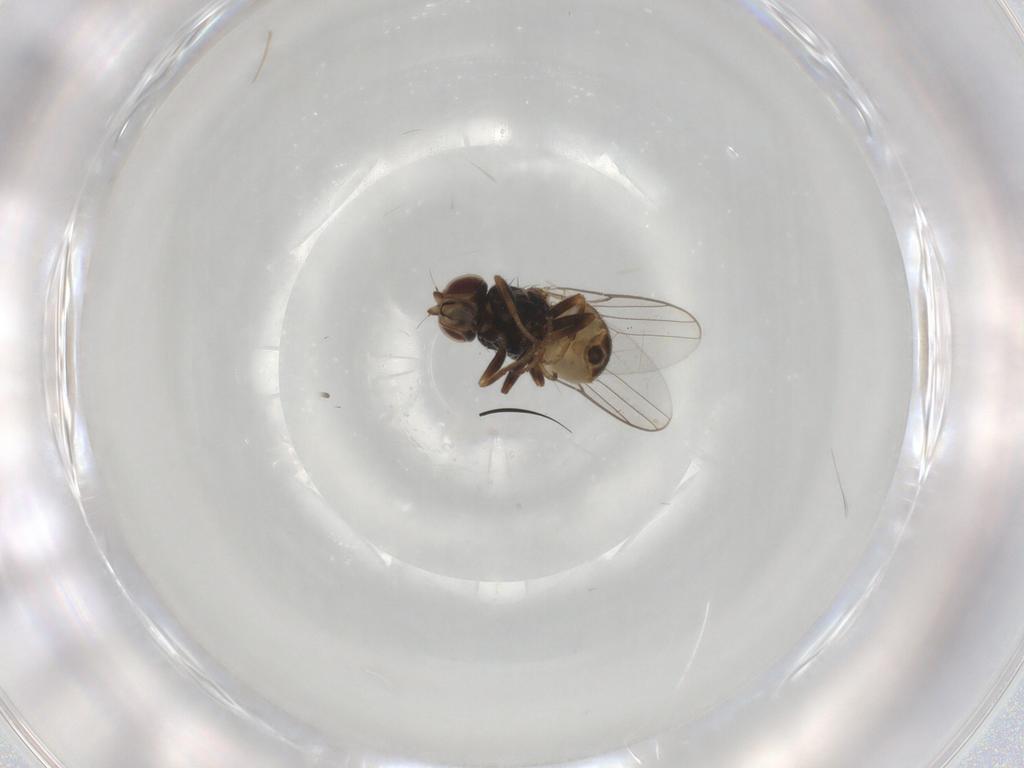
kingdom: Animalia
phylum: Arthropoda
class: Insecta
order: Diptera
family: Chloropidae
